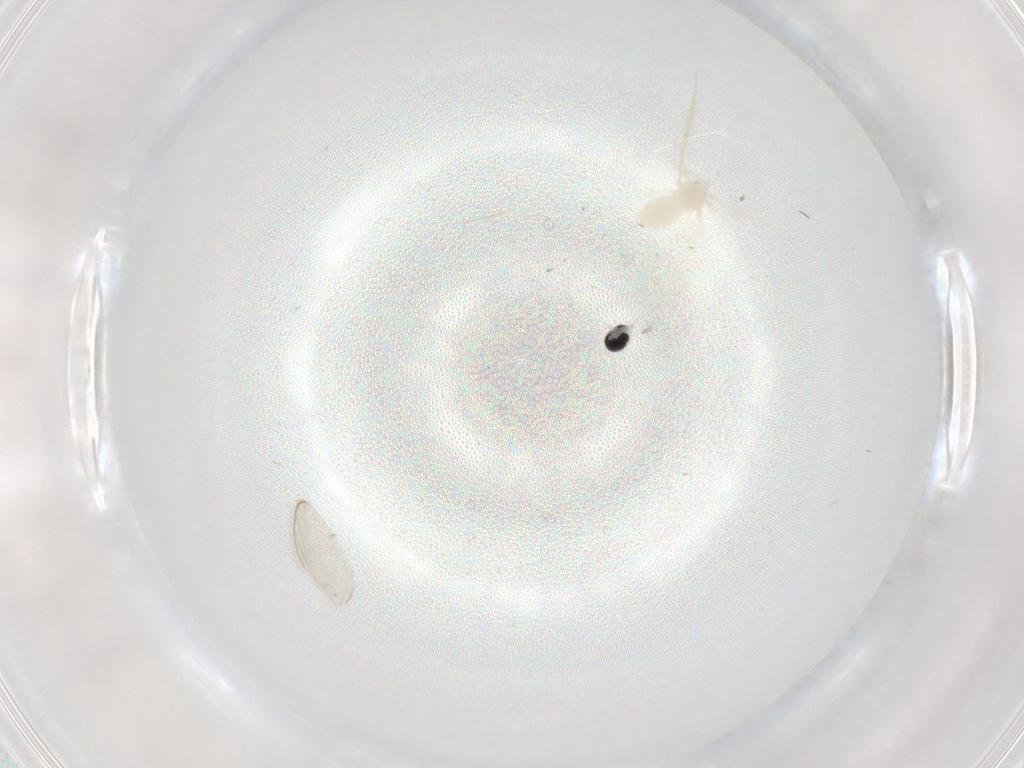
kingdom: Animalia
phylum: Arthropoda
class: Insecta
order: Diptera
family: Cecidomyiidae
